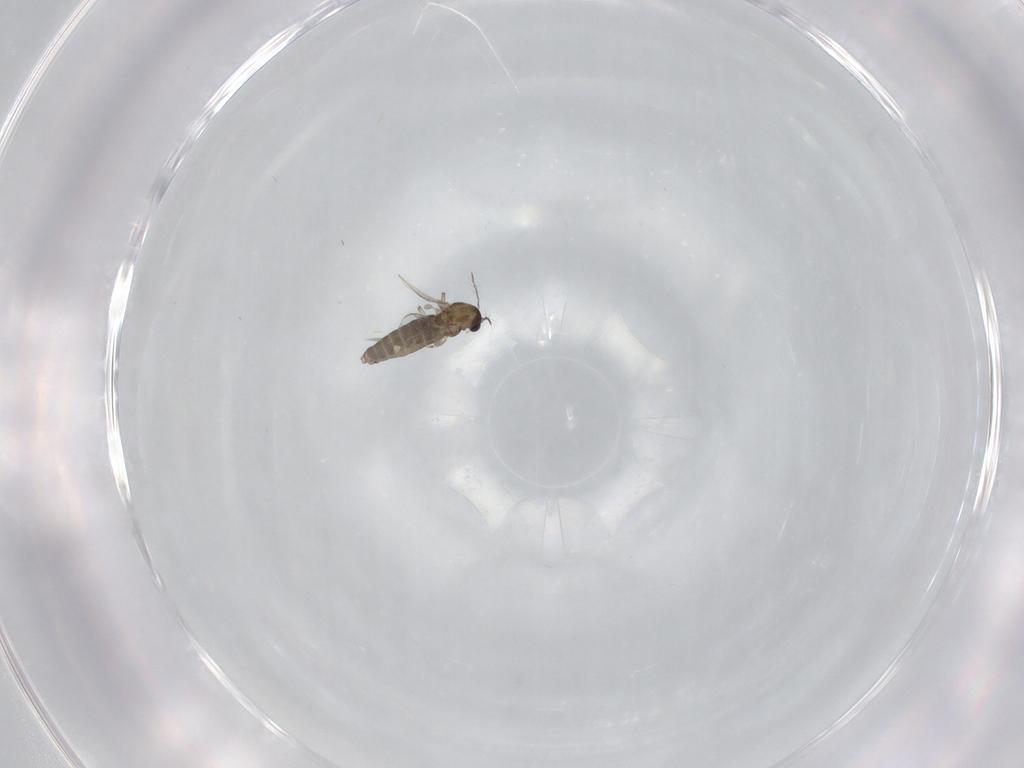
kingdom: Animalia
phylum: Arthropoda
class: Insecta
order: Diptera
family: Chironomidae
